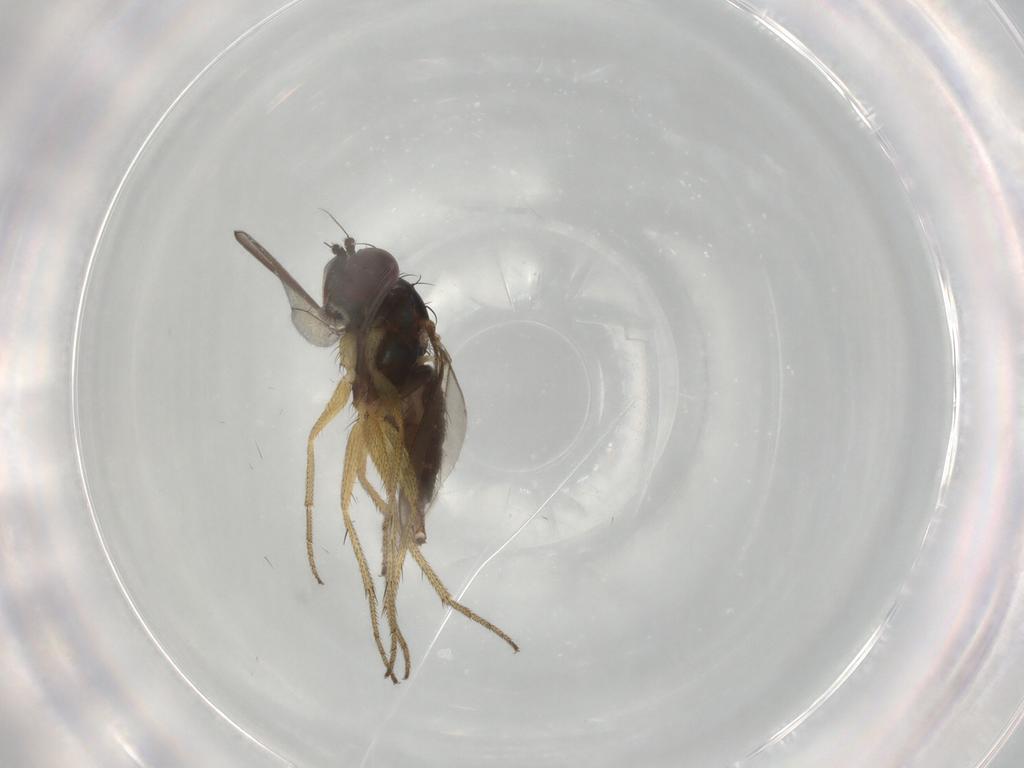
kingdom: Animalia
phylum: Arthropoda
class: Insecta
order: Diptera
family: Dolichopodidae
